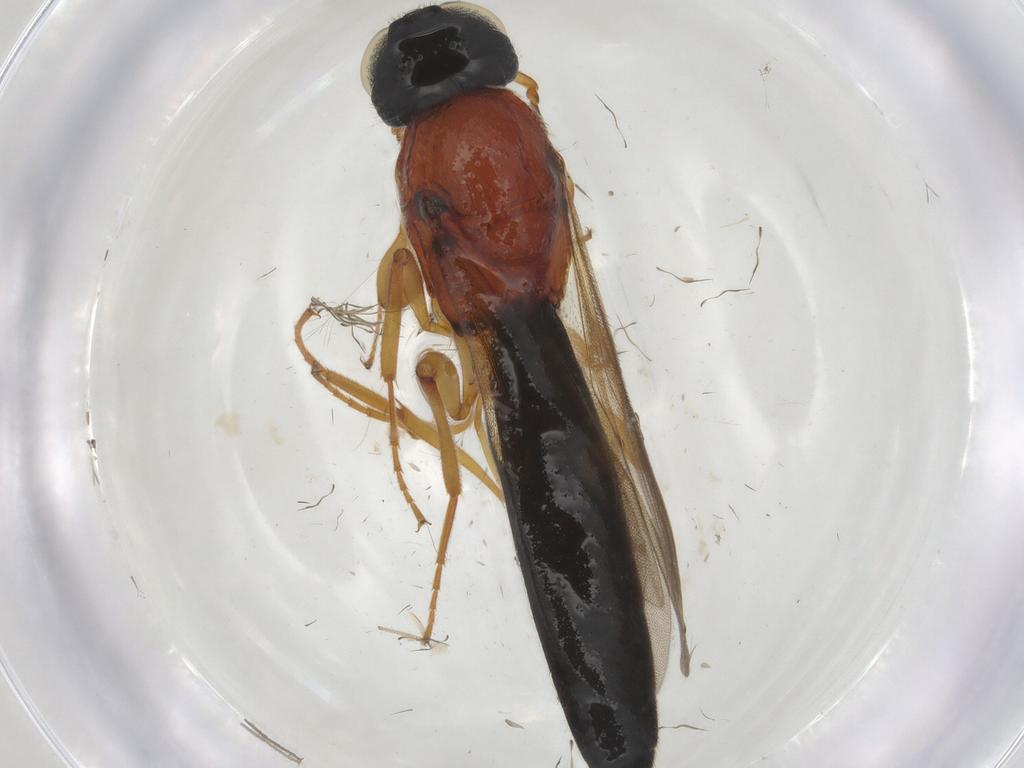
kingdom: Animalia
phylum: Arthropoda
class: Insecta
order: Hymenoptera
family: Scelionidae
